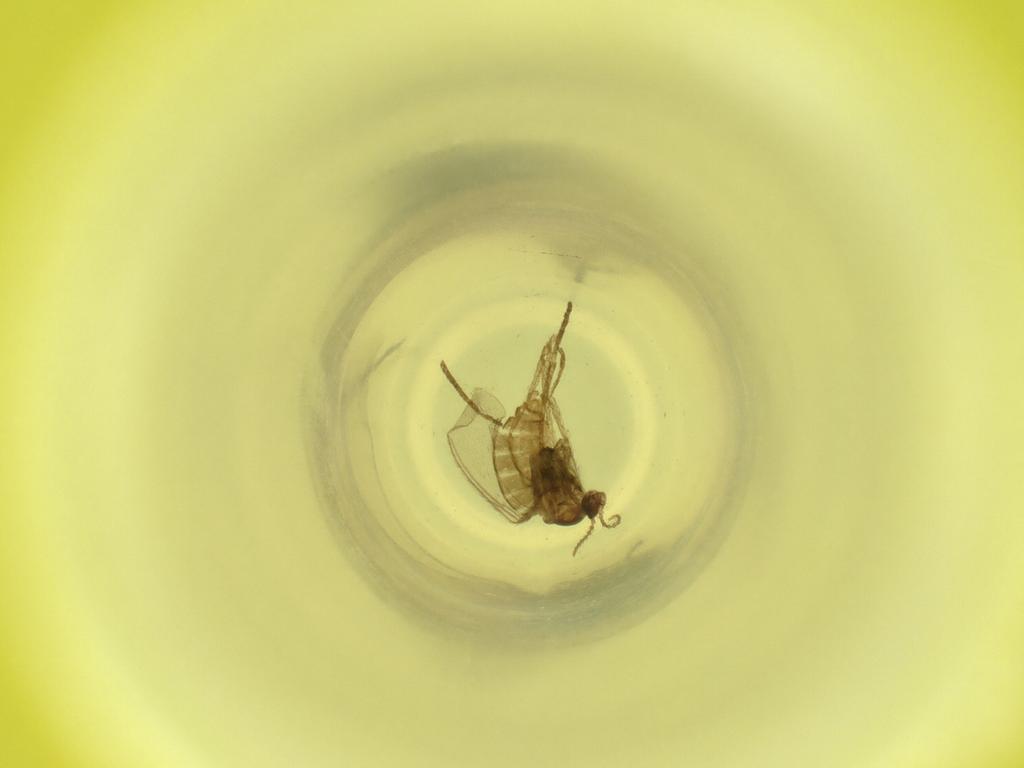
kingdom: Animalia
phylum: Arthropoda
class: Insecta
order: Diptera
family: Cecidomyiidae
